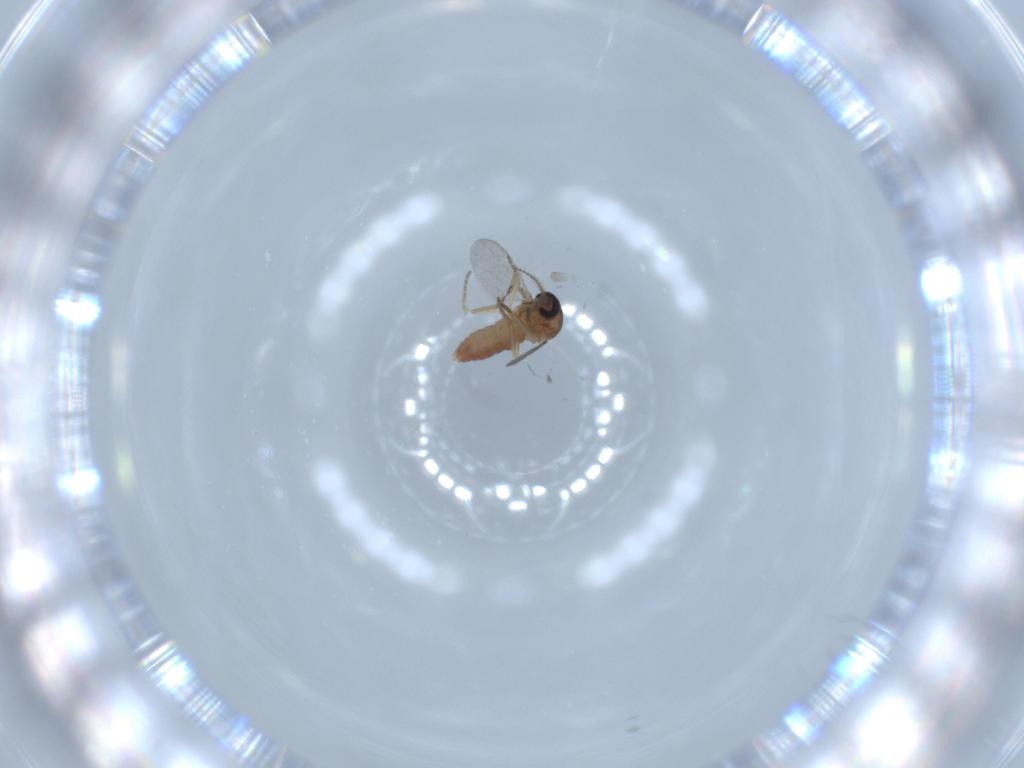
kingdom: Animalia
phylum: Arthropoda
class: Insecta
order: Diptera
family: Ceratopogonidae
